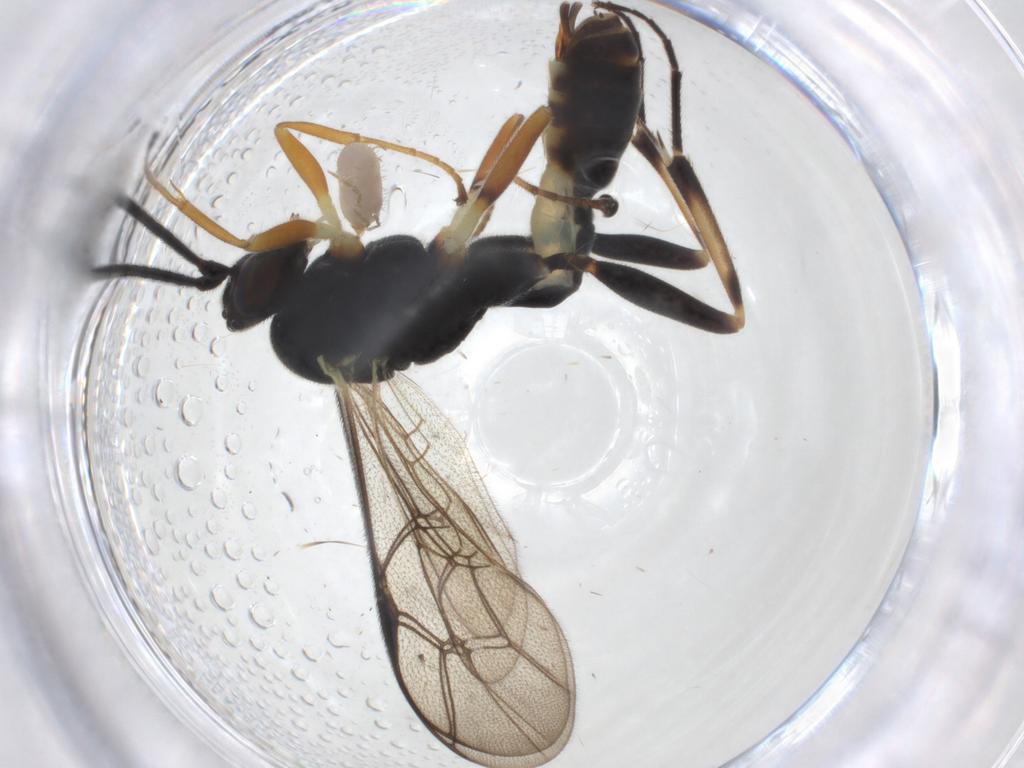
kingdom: Animalia
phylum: Arthropoda
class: Insecta
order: Hymenoptera
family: Ichneumonidae
